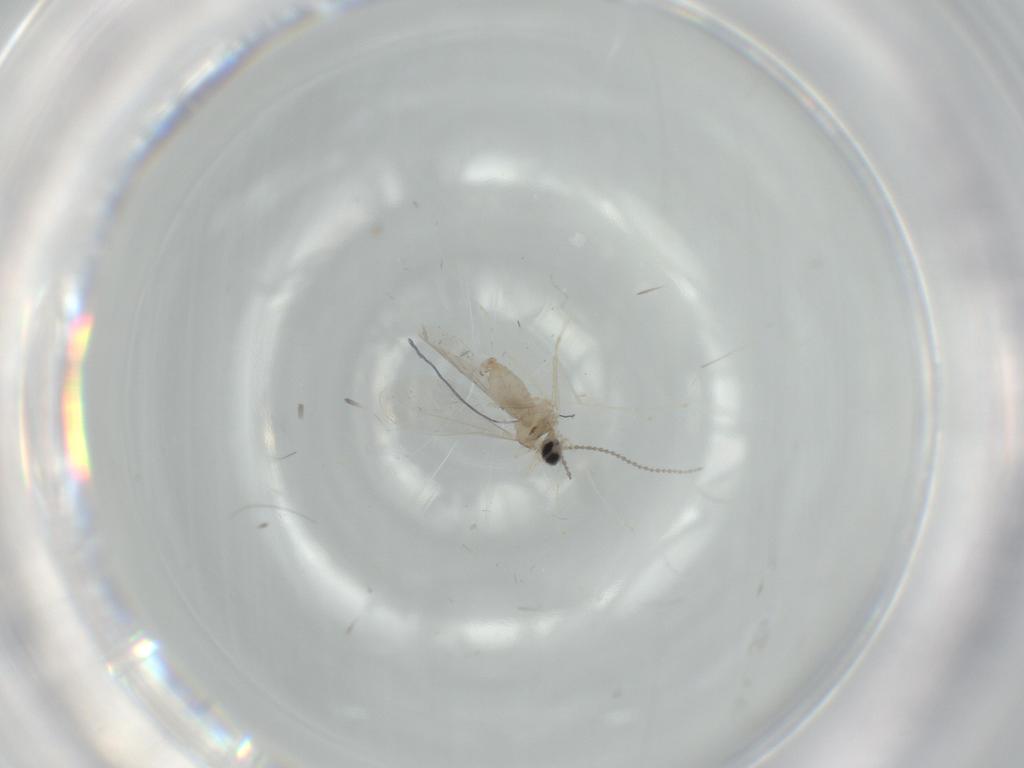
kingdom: Animalia
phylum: Arthropoda
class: Insecta
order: Diptera
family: Cecidomyiidae
